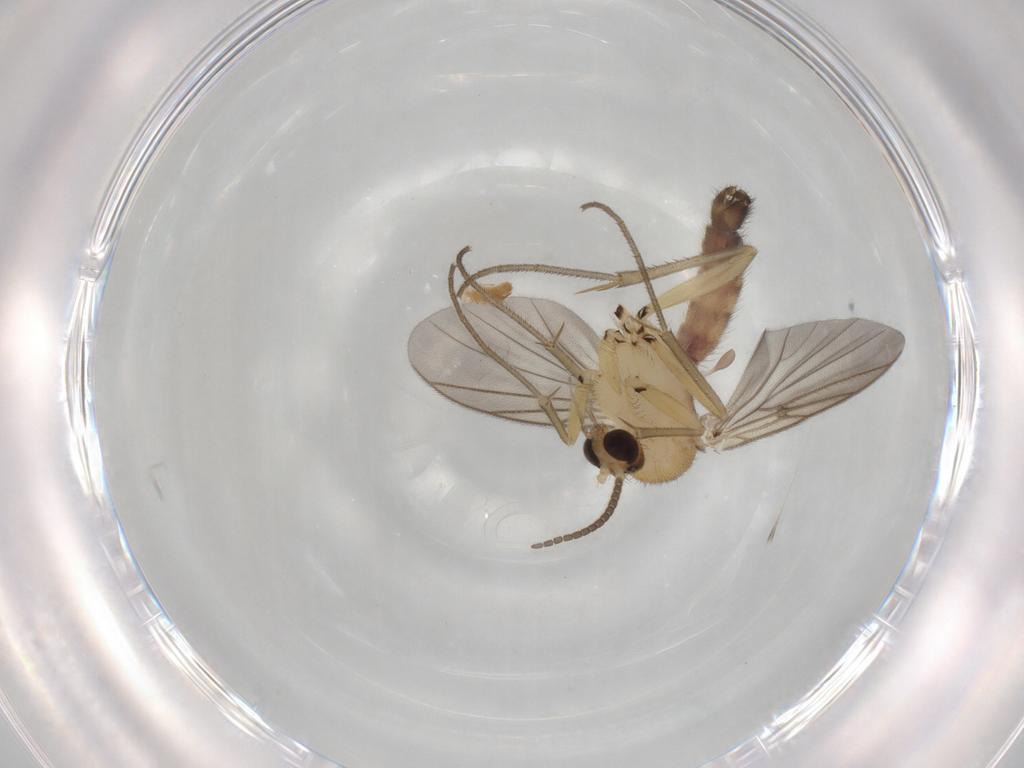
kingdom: Animalia
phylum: Arthropoda
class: Insecta
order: Diptera
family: Mycetophilidae
